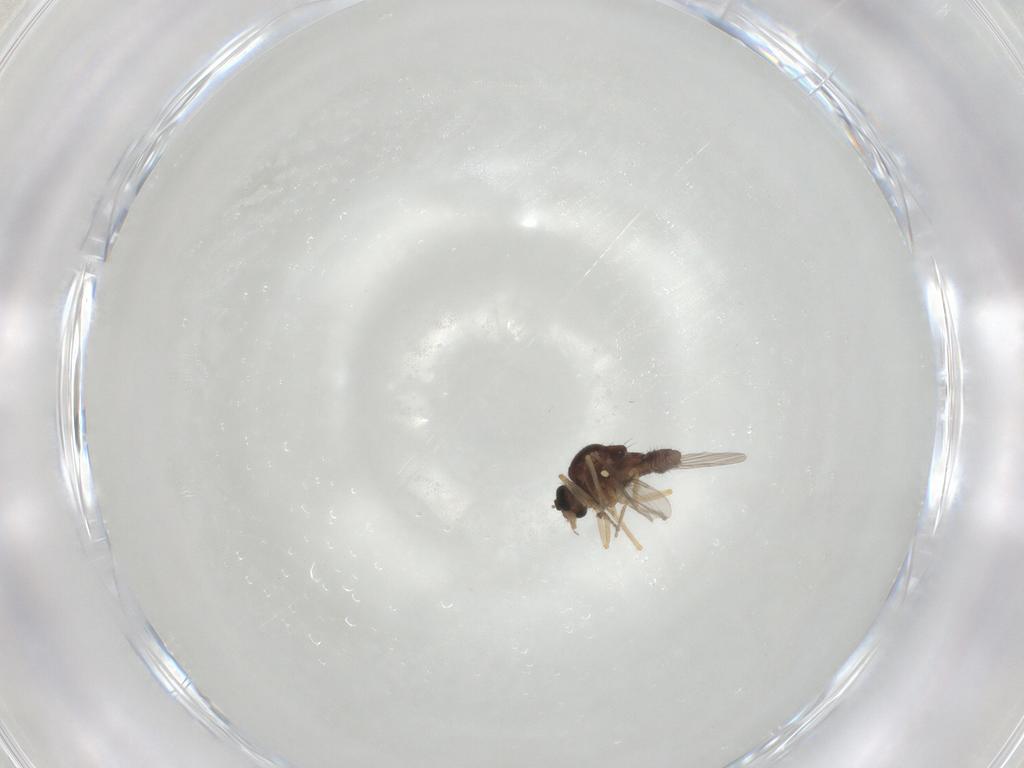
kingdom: Animalia
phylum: Arthropoda
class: Insecta
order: Diptera
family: Ceratopogonidae
